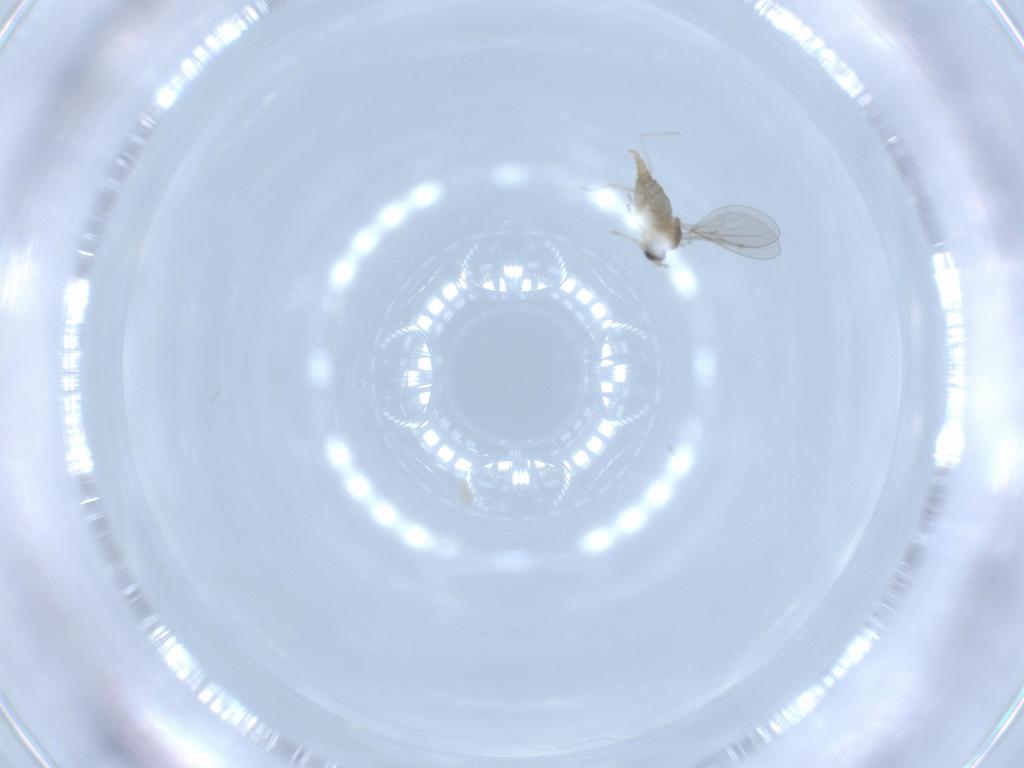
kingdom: Animalia
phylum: Arthropoda
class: Insecta
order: Diptera
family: Cecidomyiidae
